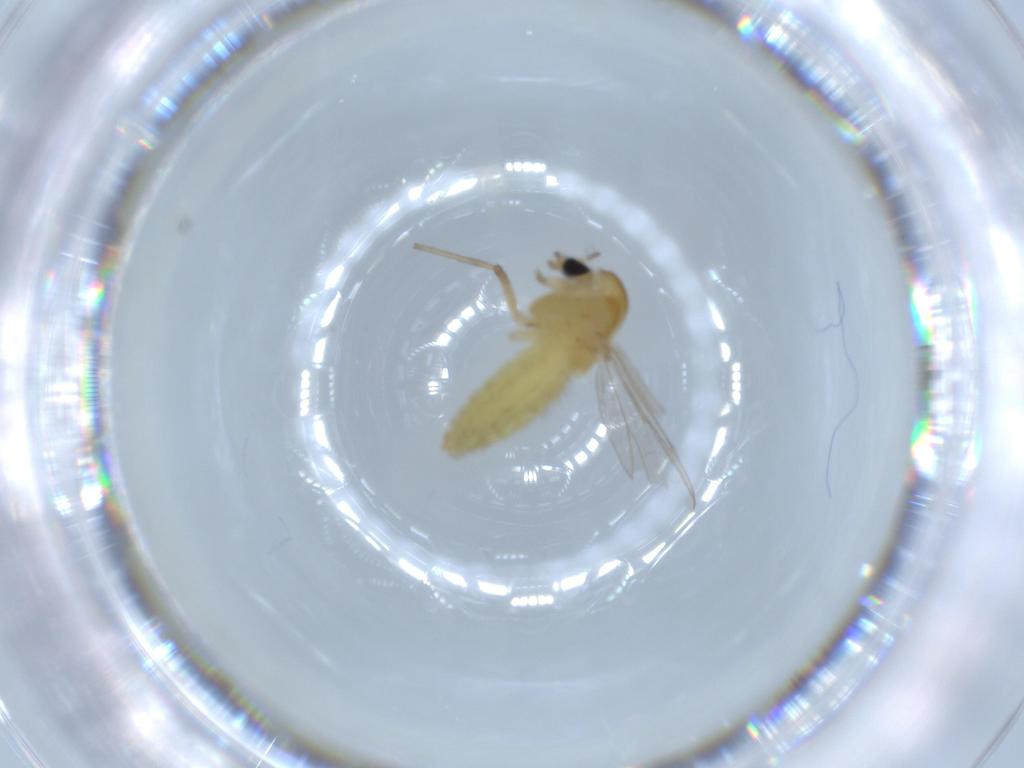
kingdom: Animalia
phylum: Arthropoda
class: Insecta
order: Diptera
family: Chironomidae
